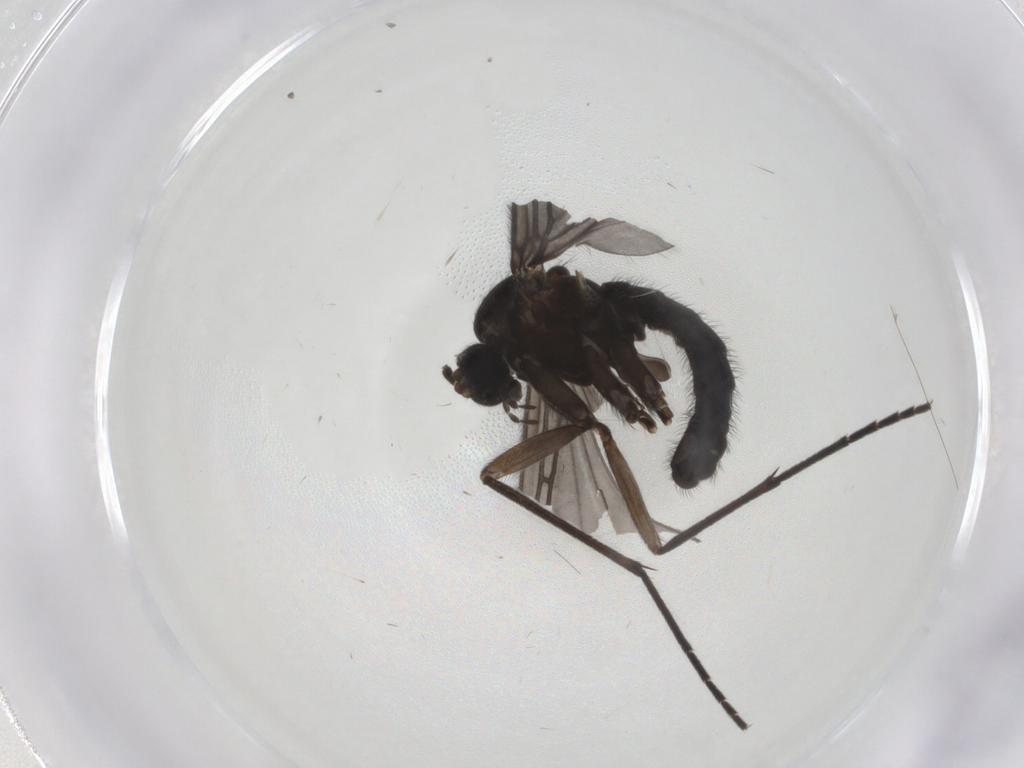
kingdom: Animalia
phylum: Arthropoda
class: Insecta
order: Diptera
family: Sciaridae
